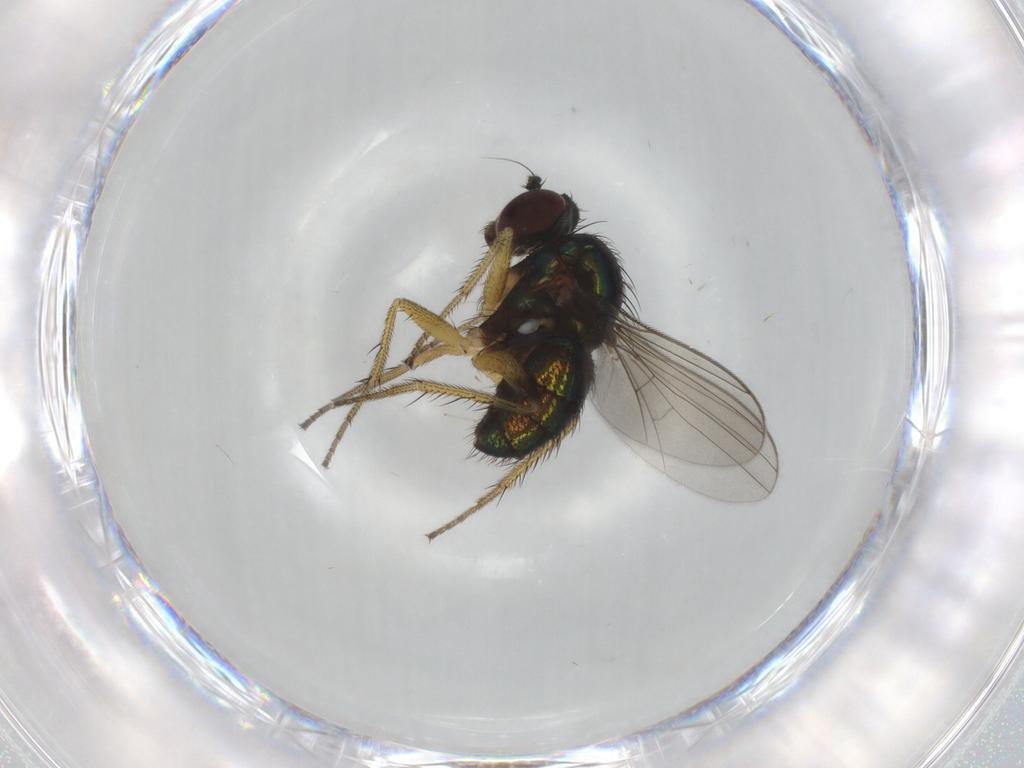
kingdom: Animalia
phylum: Arthropoda
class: Insecta
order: Diptera
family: Dolichopodidae
